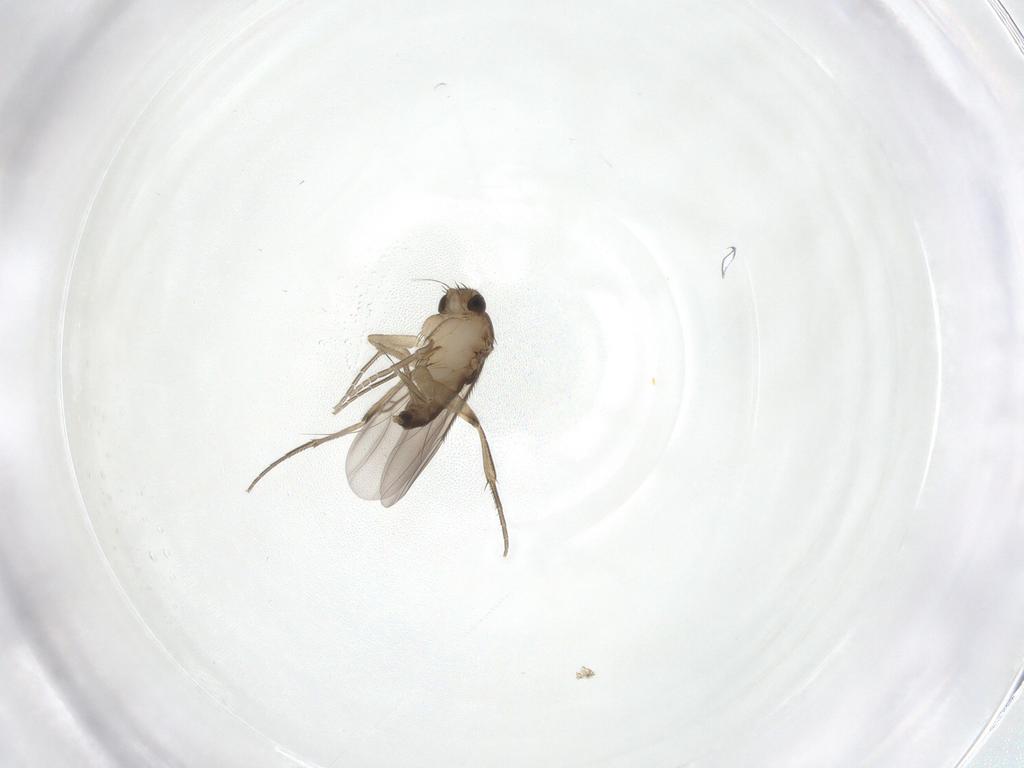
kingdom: Animalia
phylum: Arthropoda
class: Insecta
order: Diptera
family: Phoridae
